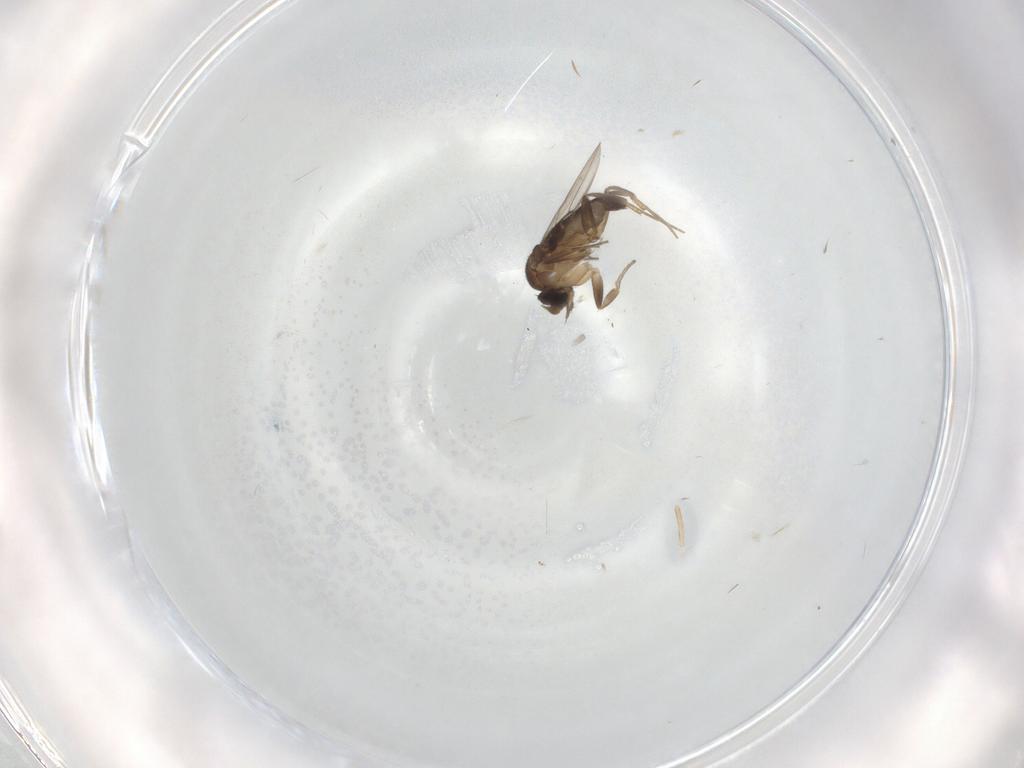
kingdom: Animalia
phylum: Arthropoda
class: Insecta
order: Diptera
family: Phoridae
